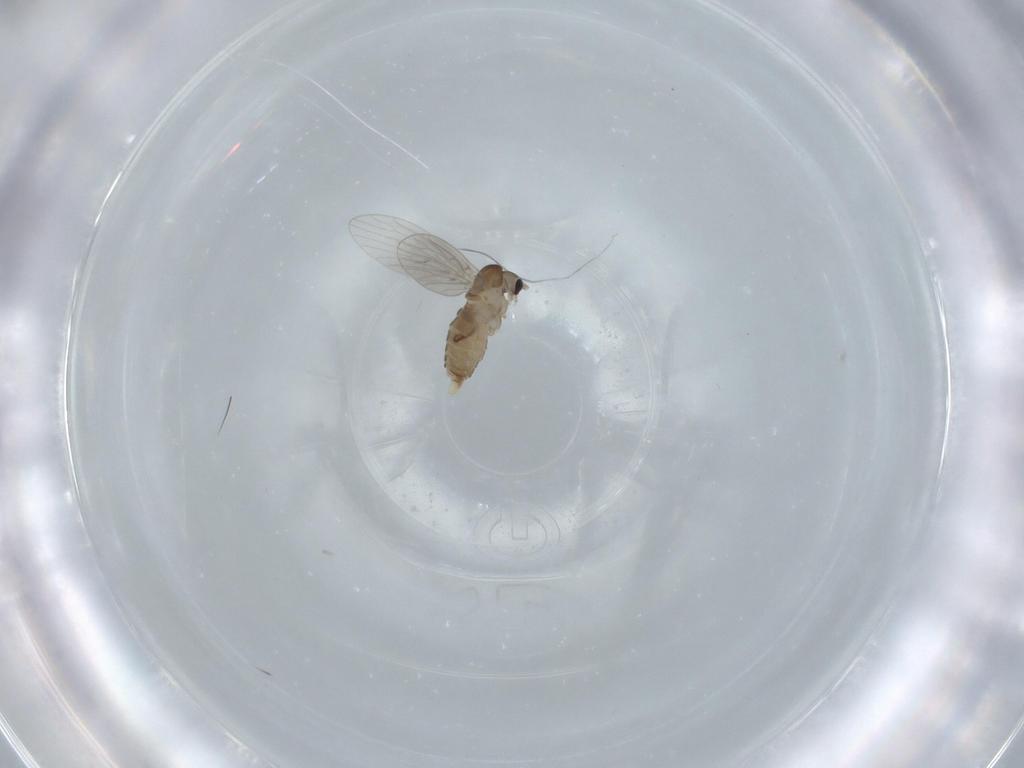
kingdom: Animalia
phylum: Arthropoda
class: Insecta
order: Diptera
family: Psychodidae
